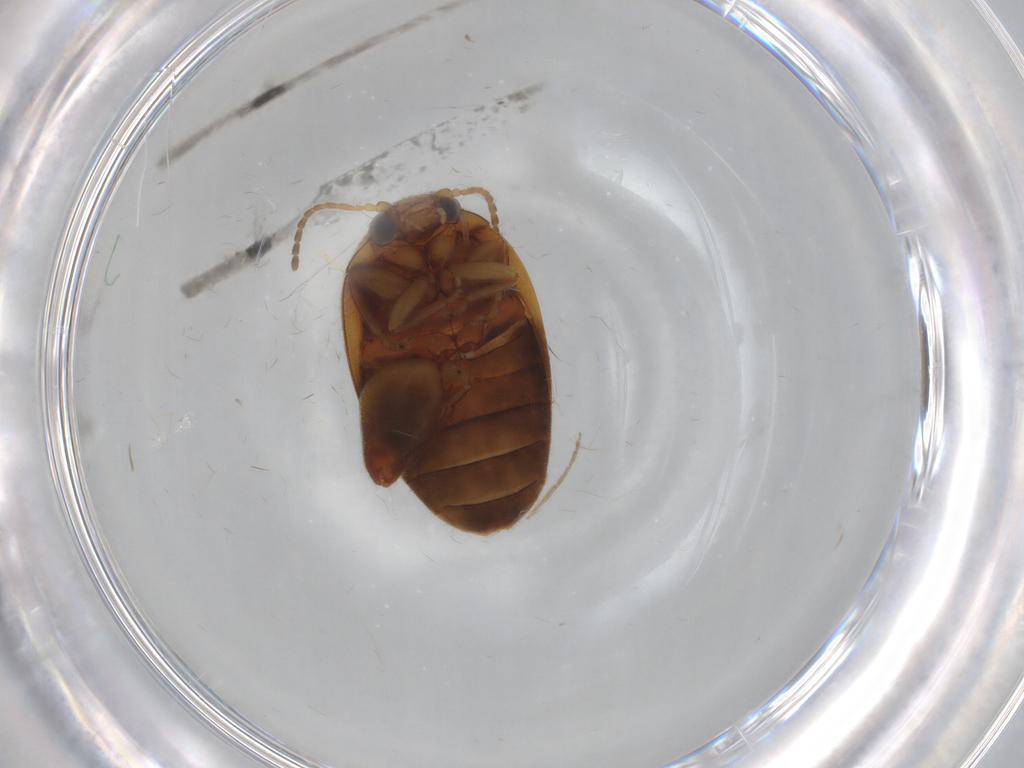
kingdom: Animalia
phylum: Arthropoda
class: Insecta
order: Coleoptera
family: Scirtidae
